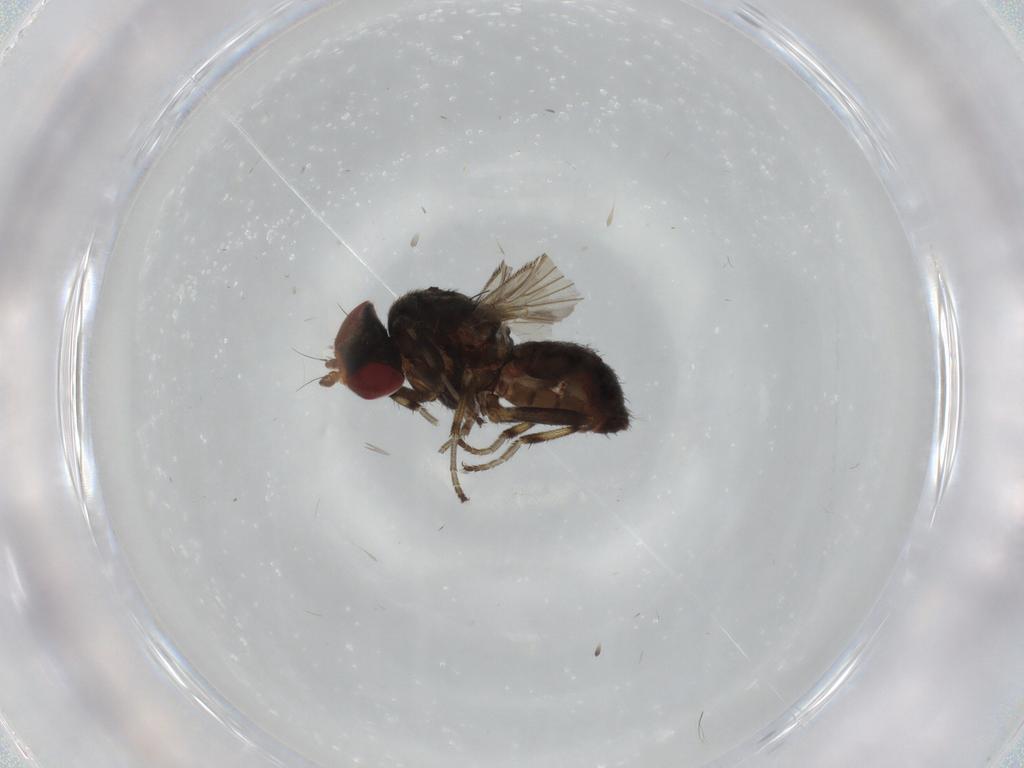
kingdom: Animalia
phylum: Arthropoda
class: Insecta
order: Diptera
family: Heleomyzidae
